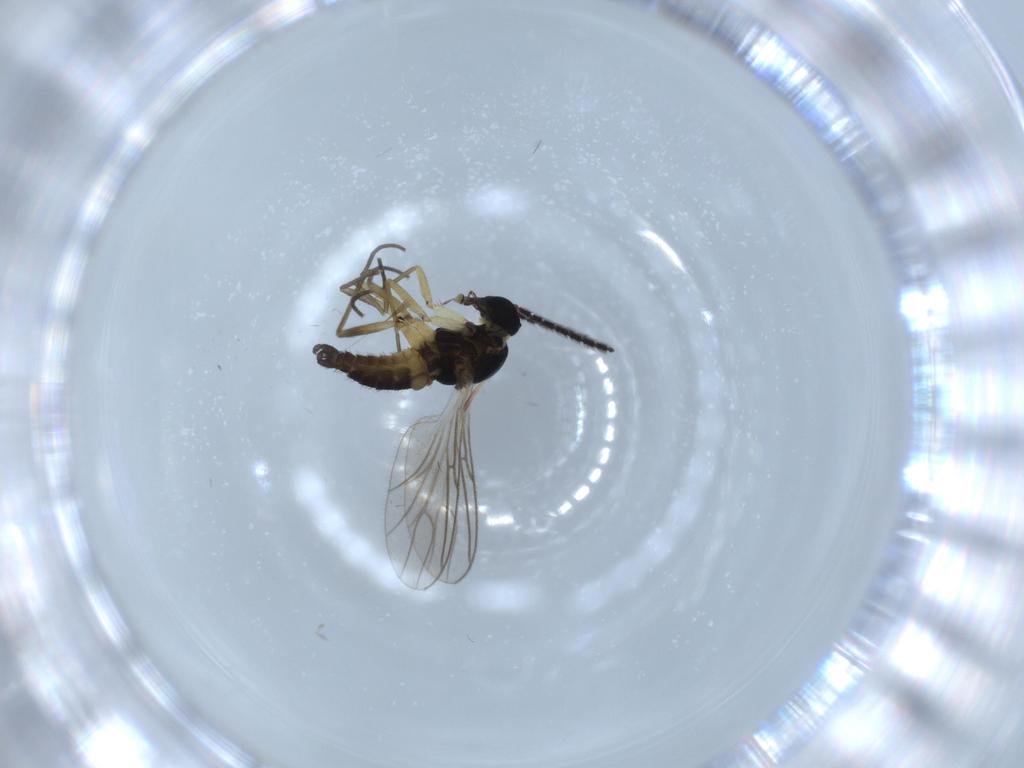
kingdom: Animalia
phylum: Arthropoda
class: Insecta
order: Diptera
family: Sciaridae
